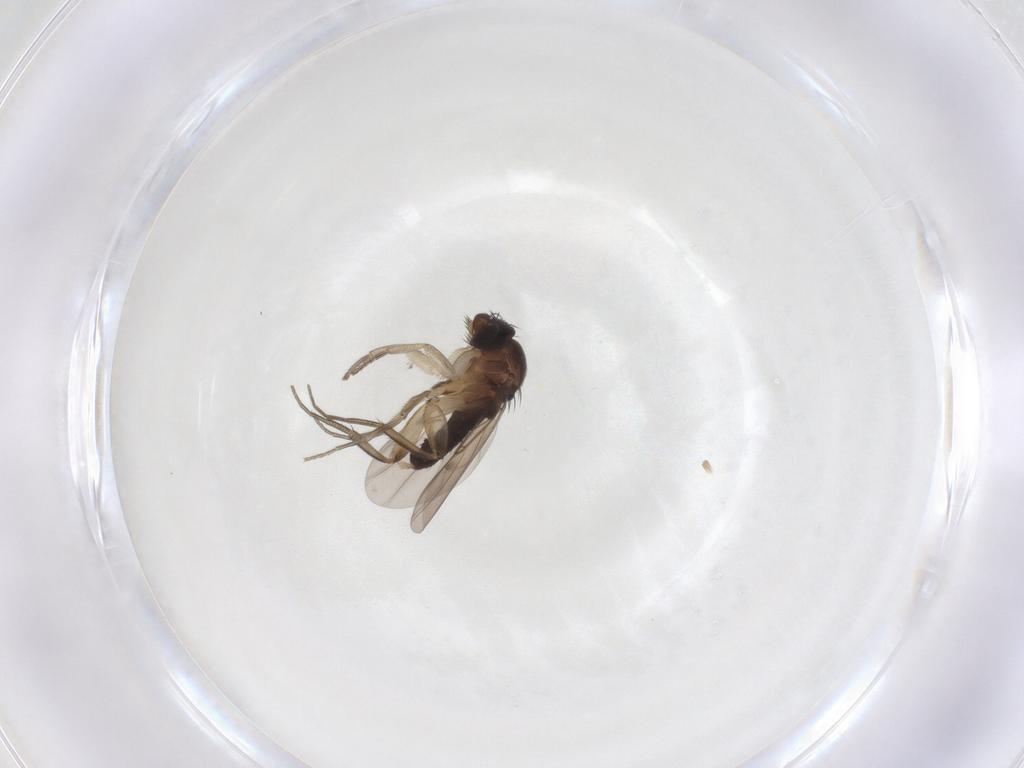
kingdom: Animalia
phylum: Arthropoda
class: Insecta
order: Diptera
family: Phoridae
